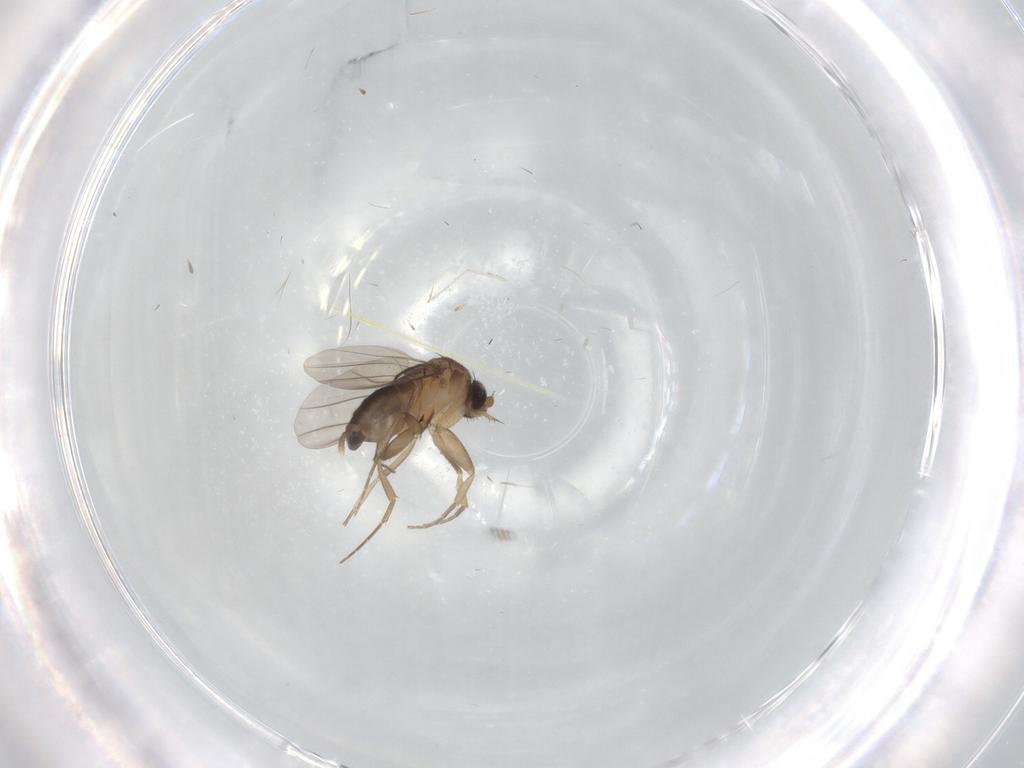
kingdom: Animalia
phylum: Arthropoda
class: Insecta
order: Diptera
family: Phoridae
